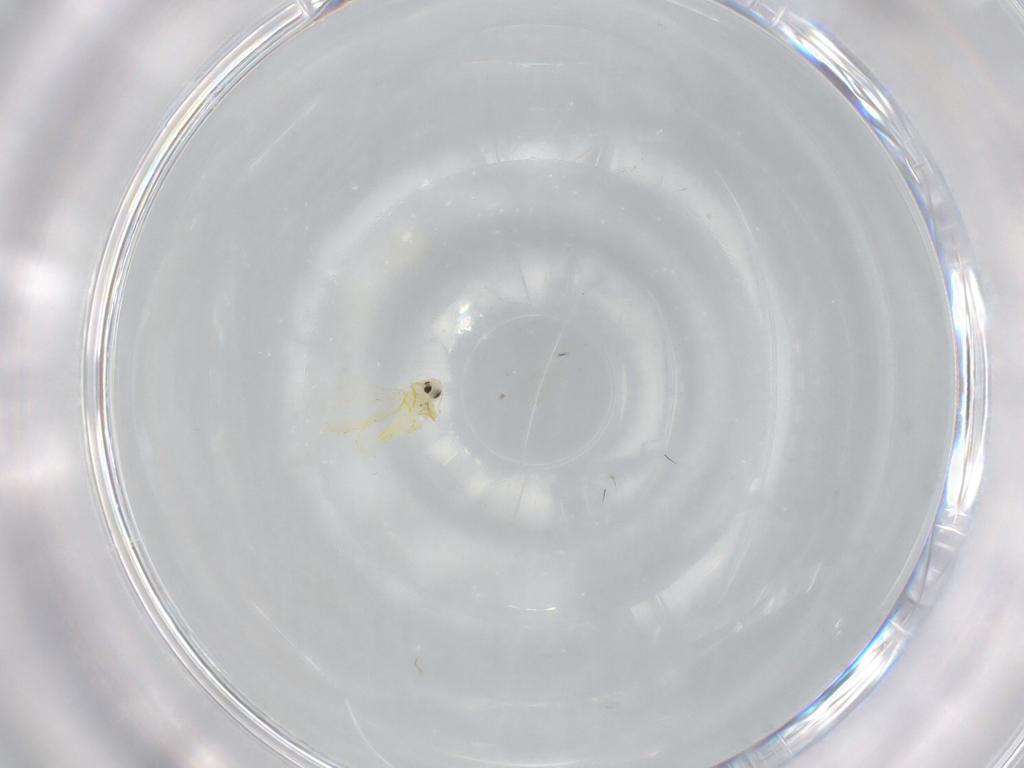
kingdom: Animalia
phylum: Arthropoda
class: Insecta
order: Hemiptera
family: Aleyrodidae
